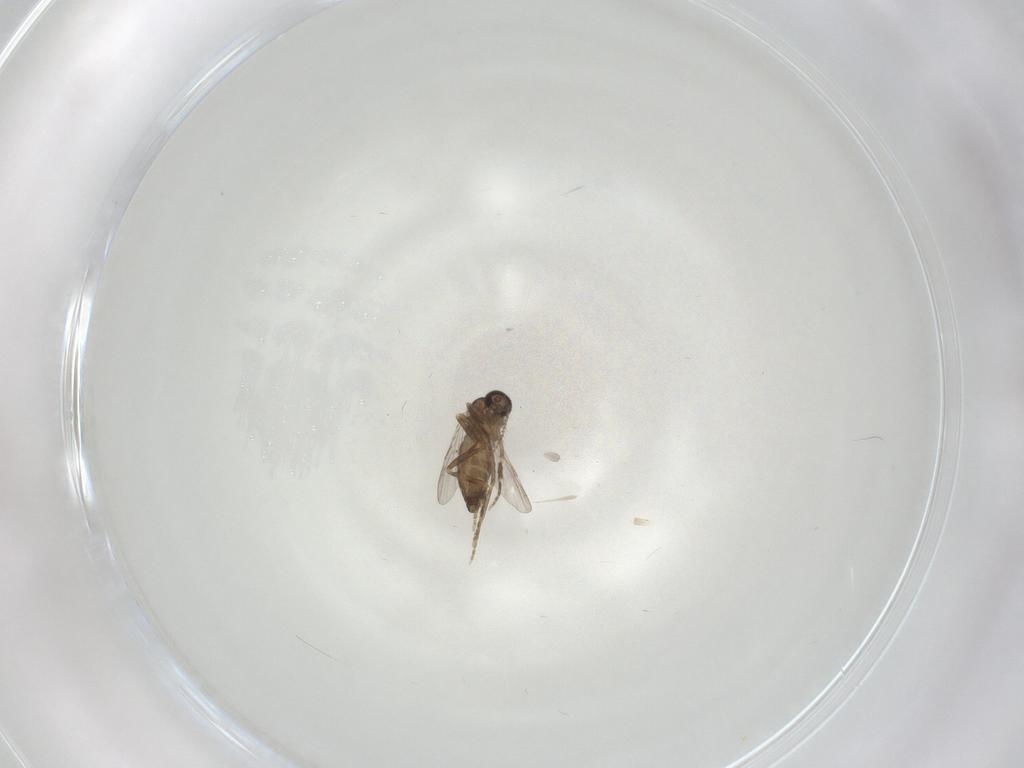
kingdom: Animalia
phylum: Arthropoda
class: Insecta
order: Diptera
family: Ceratopogonidae
